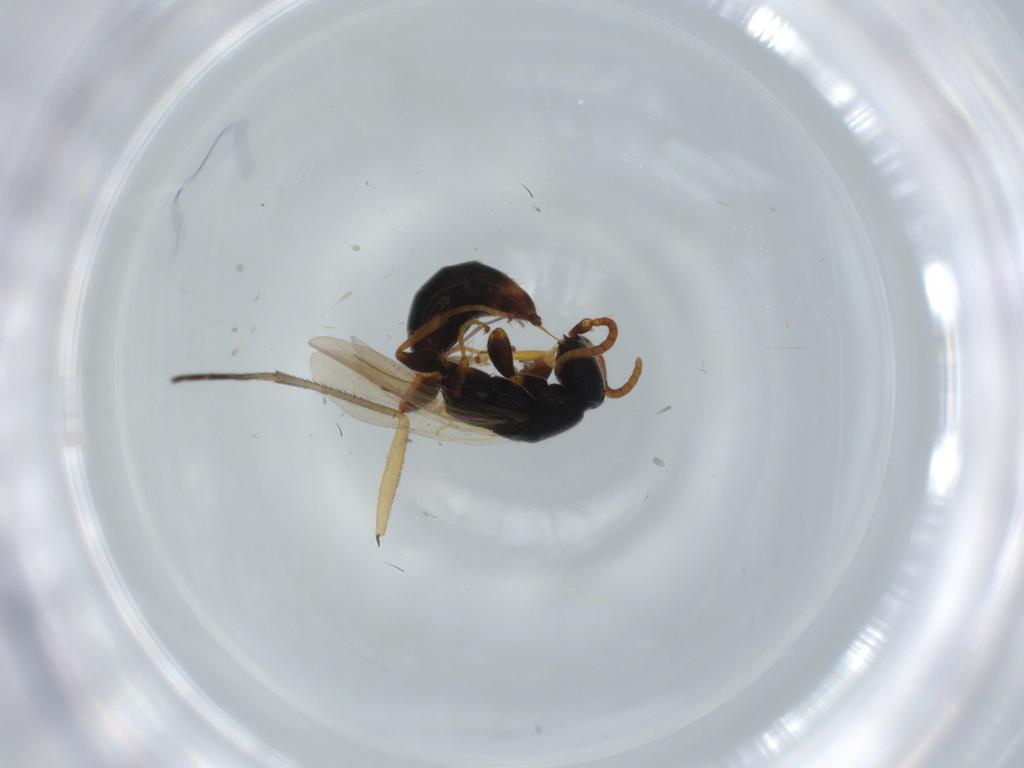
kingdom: Animalia
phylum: Arthropoda
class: Insecta
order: Hymenoptera
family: Bethylidae
